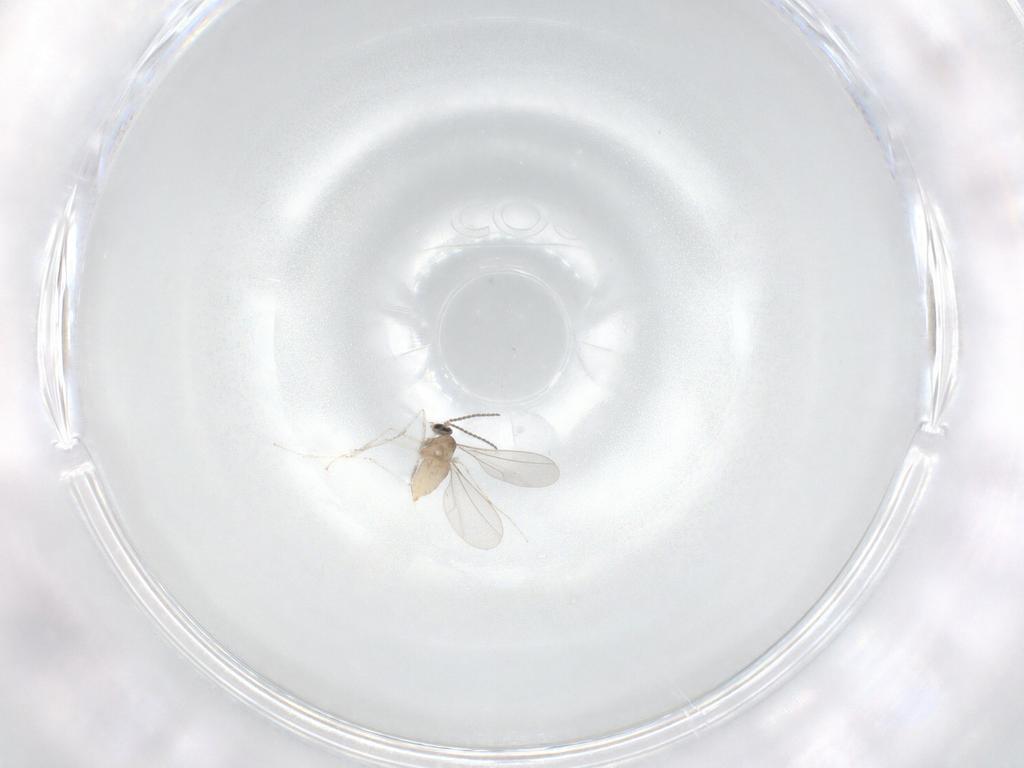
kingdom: Animalia
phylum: Arthropoda
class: Insecta
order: Diptera
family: Cecidomyiidae
